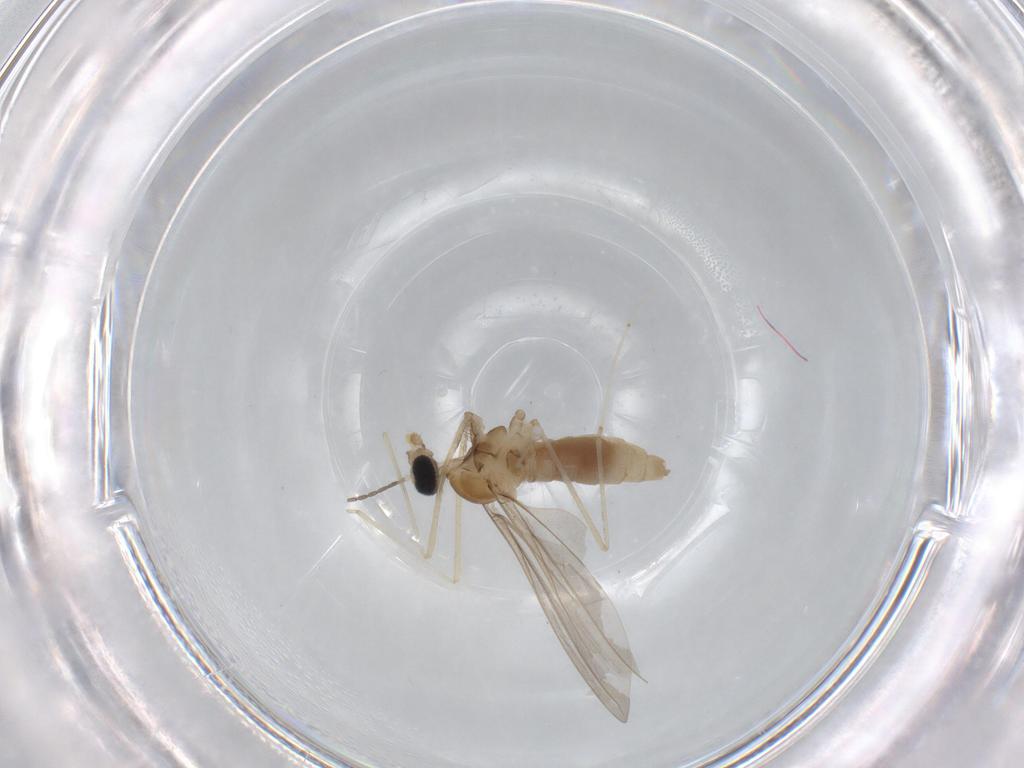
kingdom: Animalia
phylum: Arthropoda
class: Insecta
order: Diptera
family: Cecidomyiidae
